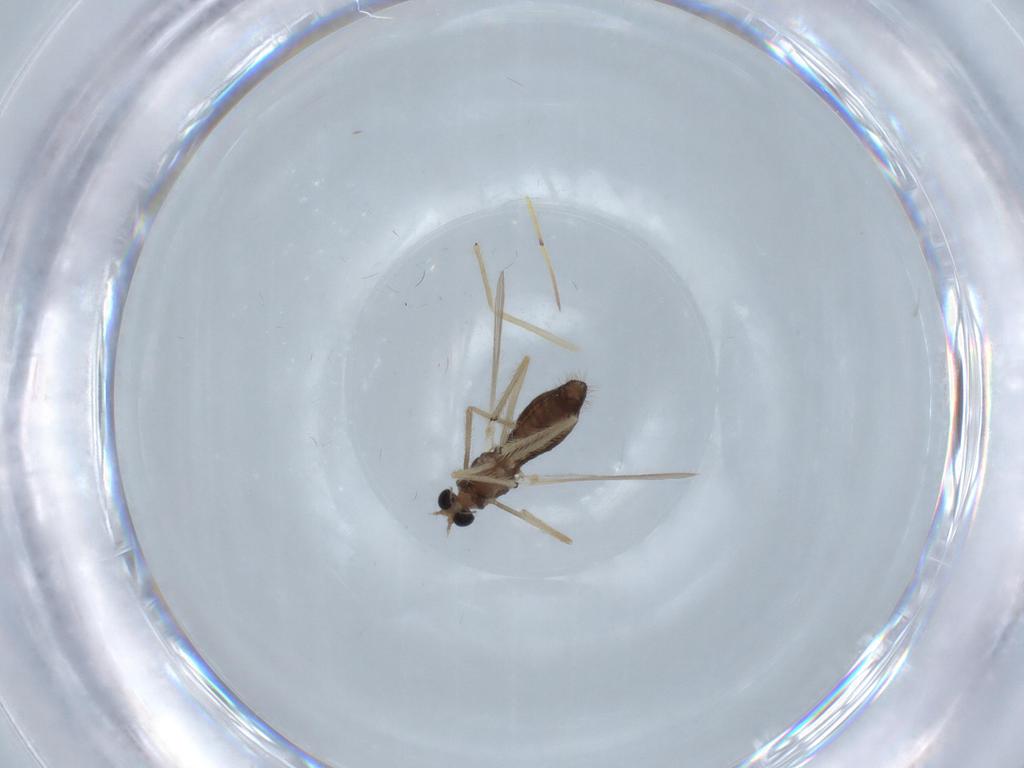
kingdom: Animalia
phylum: Arthropoda
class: Insecta
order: Diptera
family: Chironomidae
